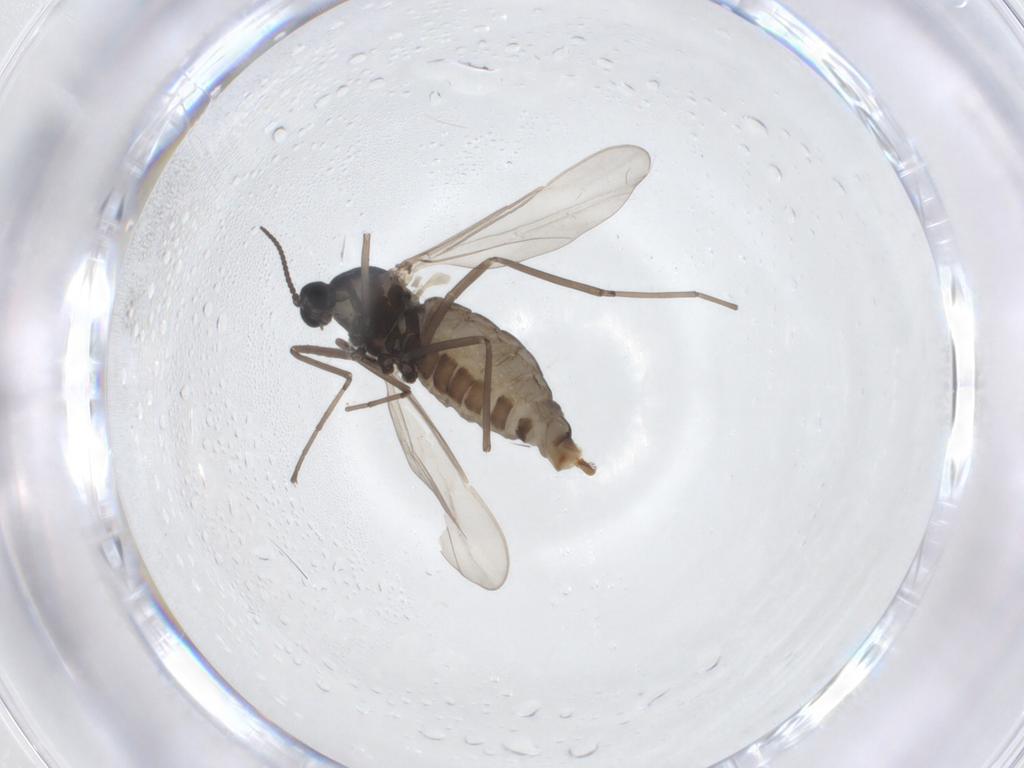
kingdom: Animalia
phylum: Arthropoda
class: Insecta
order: Diptera
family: Cecidomyiidae
